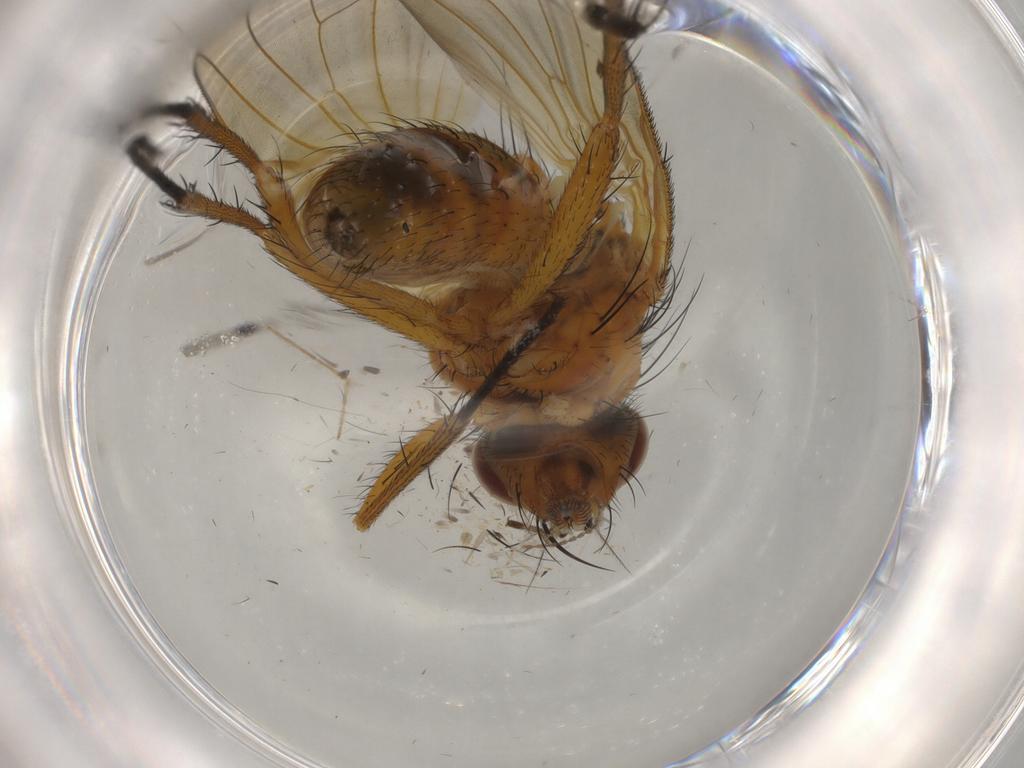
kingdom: Animalia
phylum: Arthropoda
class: Insecta
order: Diptera
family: Anthomyiidae
